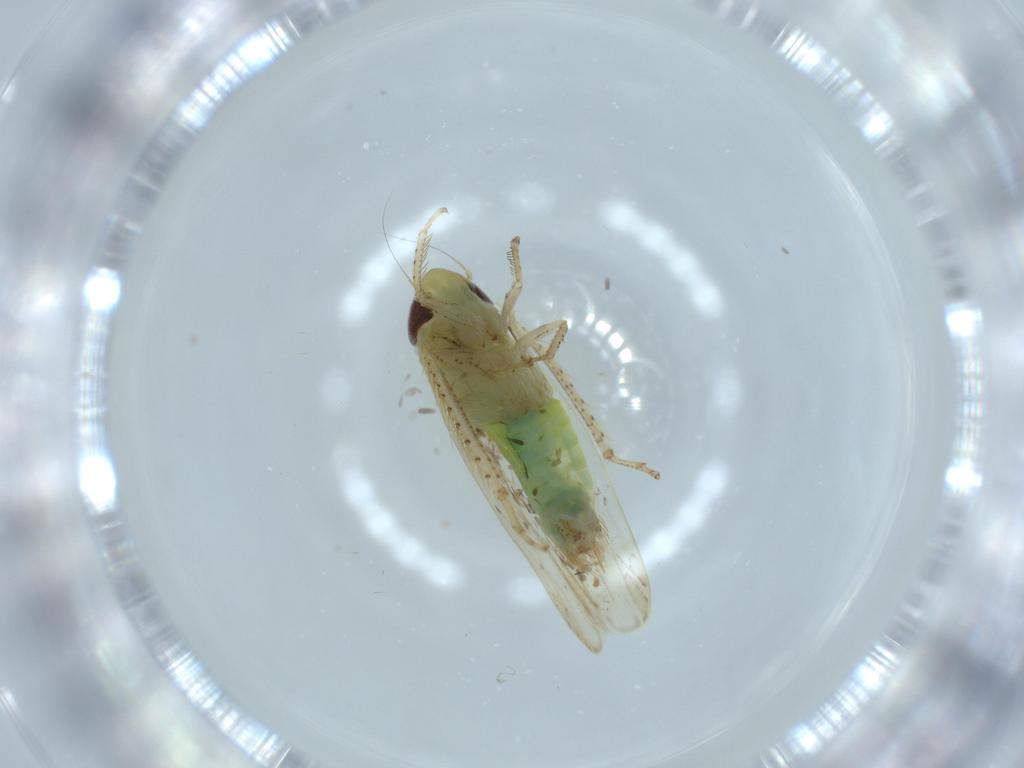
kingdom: Animalia
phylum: Arthropoda
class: Insecta
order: Hemiptera
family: Cicadellidae
